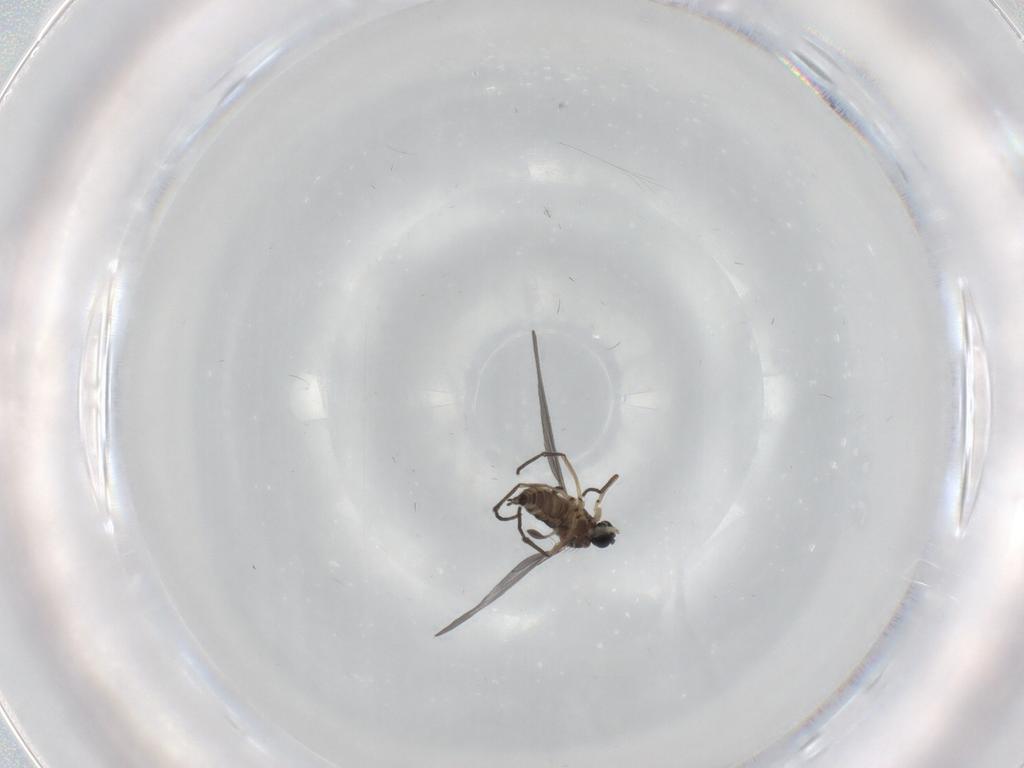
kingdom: Animalia
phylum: Arthropoda
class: Insecta
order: Diptera
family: Sciaridae
